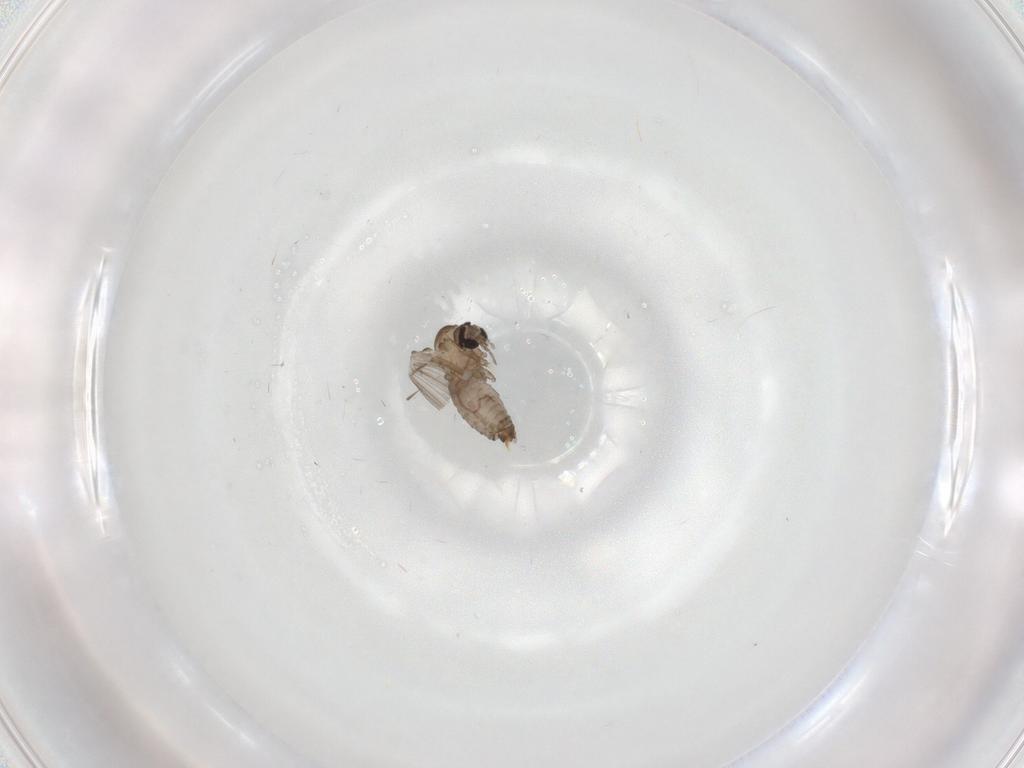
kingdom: Animalia
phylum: Arthropoda
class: Insecta
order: Diptera
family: Psychodidae
